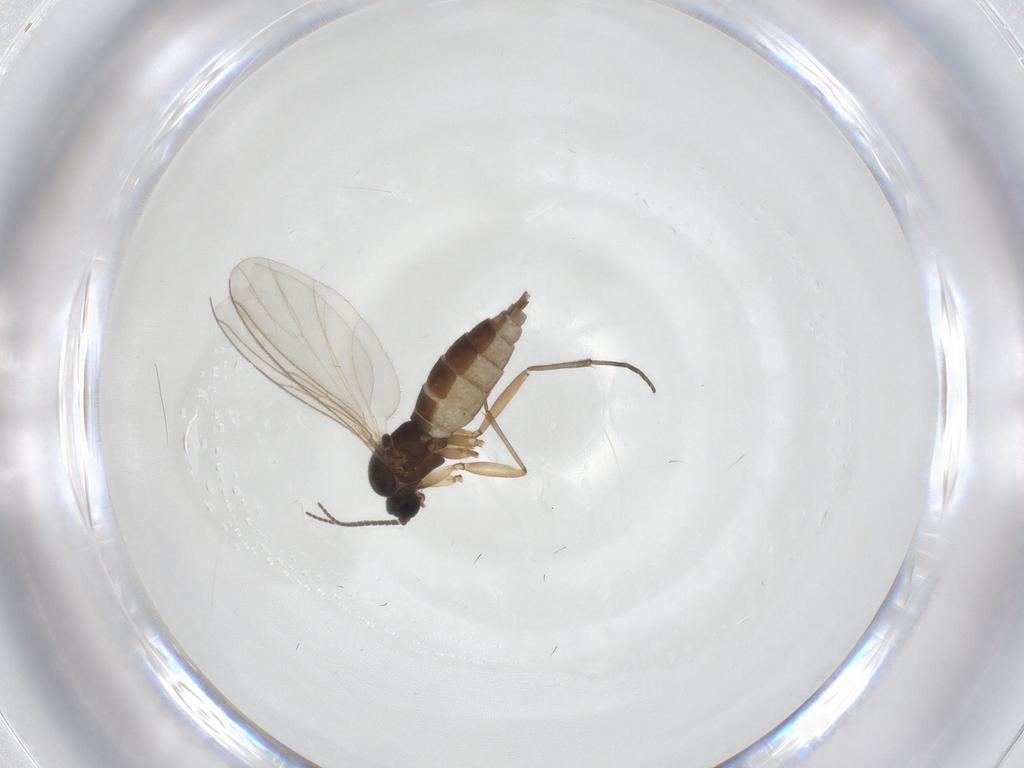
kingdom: Animalia
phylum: Arthropoda
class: Insecta
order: Diptera
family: Sciaridae
